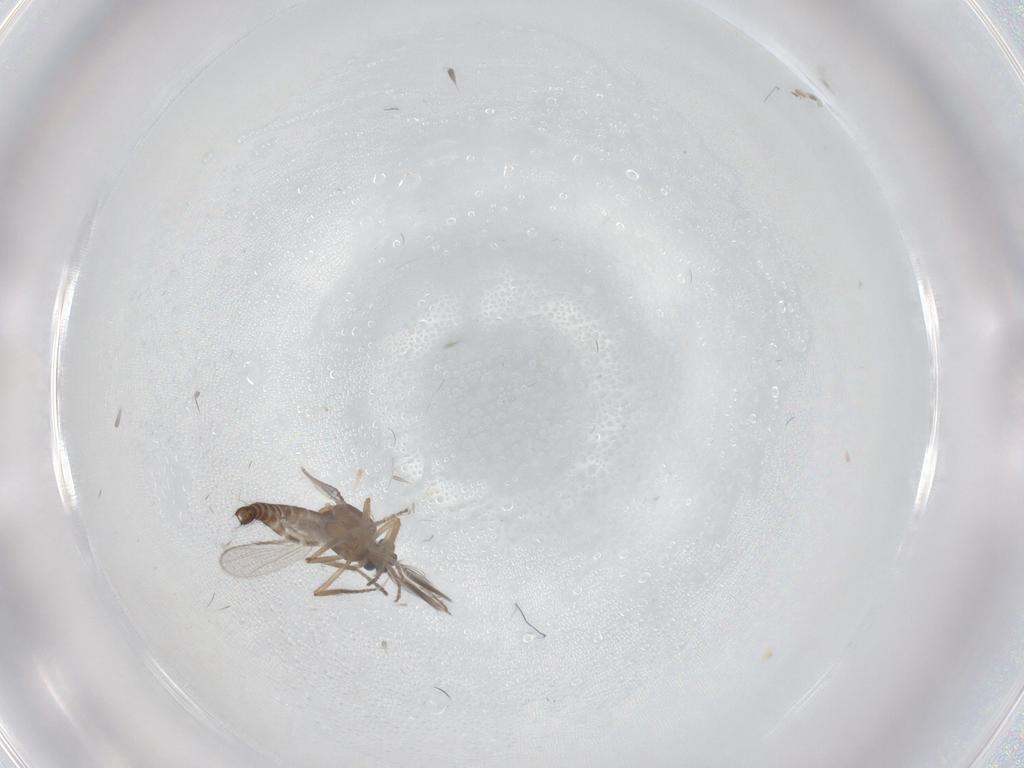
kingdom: Animalia
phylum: Arthropoda
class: Insecta
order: Diptera
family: Ceratopogonidae
